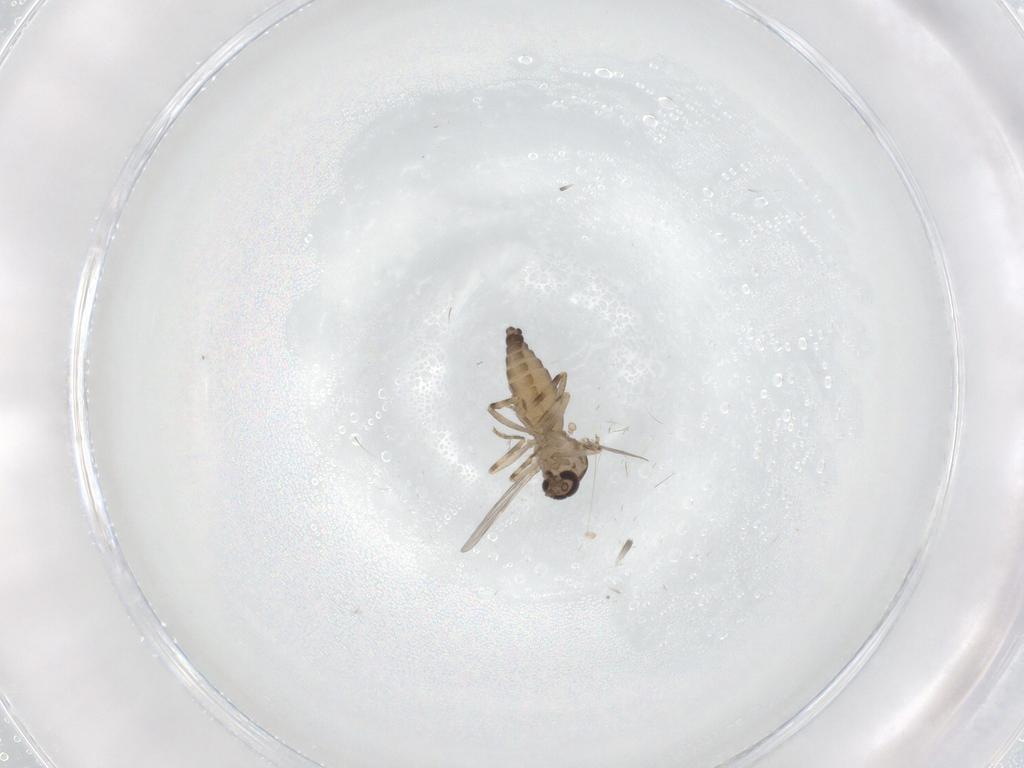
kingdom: Animalia
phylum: Arthropoda
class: Insecta
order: Diptera
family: Ceratopogonidae
